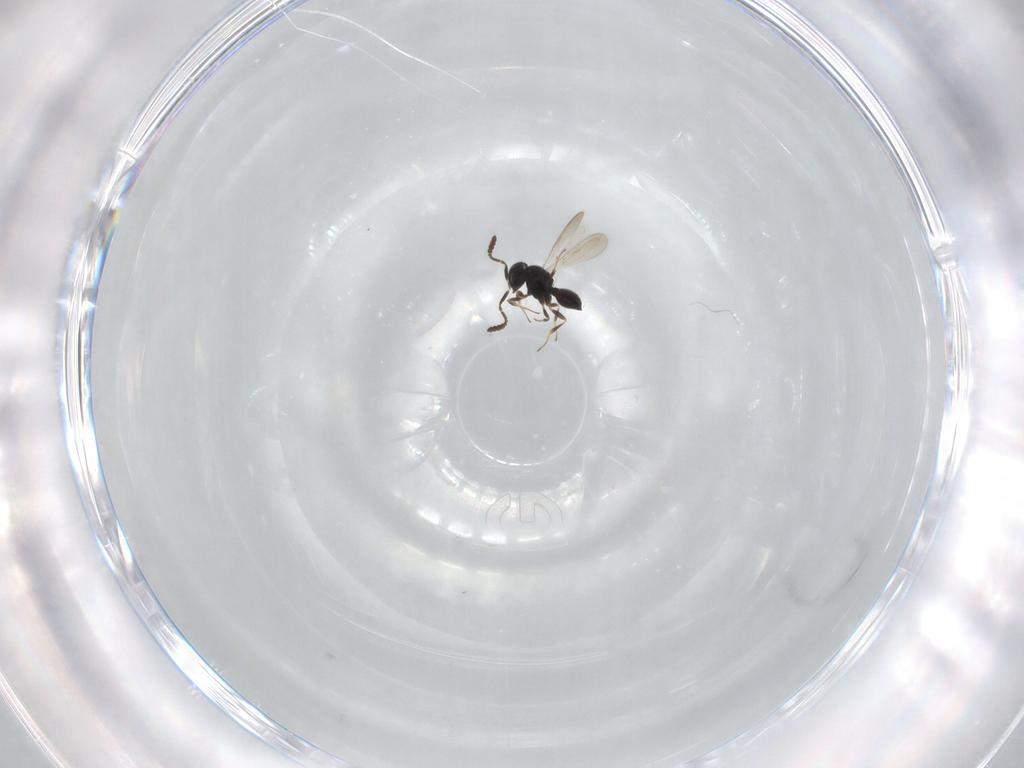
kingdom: Animalia
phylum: Arthropoda
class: Insecta
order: Hymenoptera
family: Scelionidae
